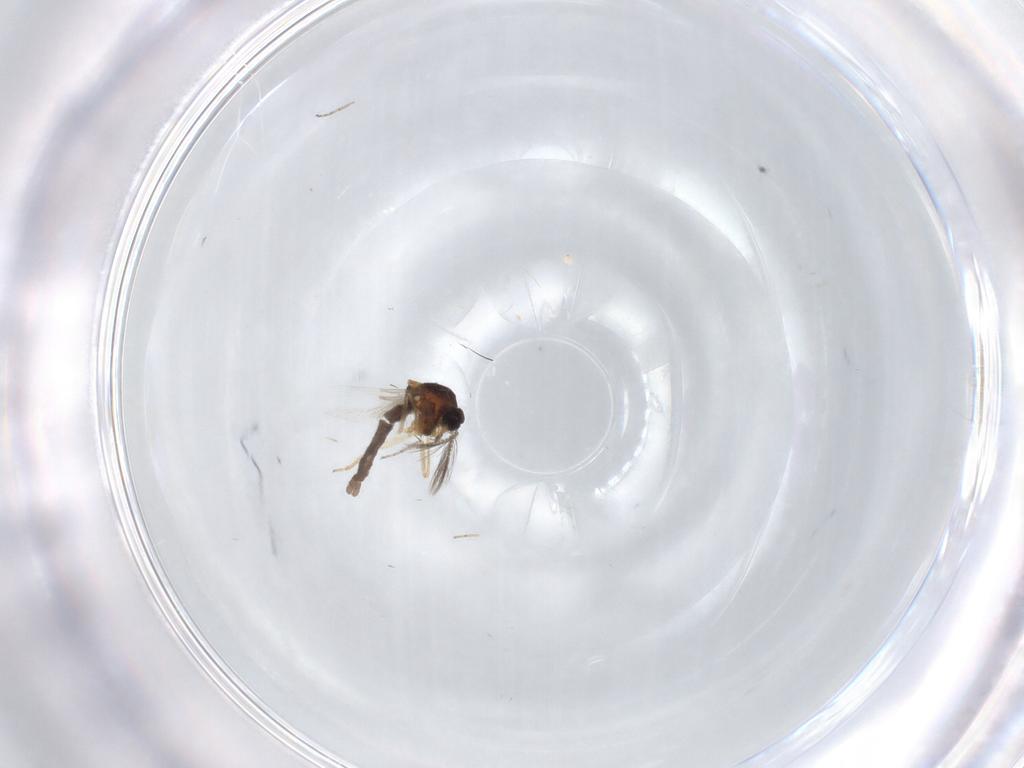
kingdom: Animalia
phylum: Arthropoda
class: Insecta
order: Diptera
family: Ceratopogonidae
